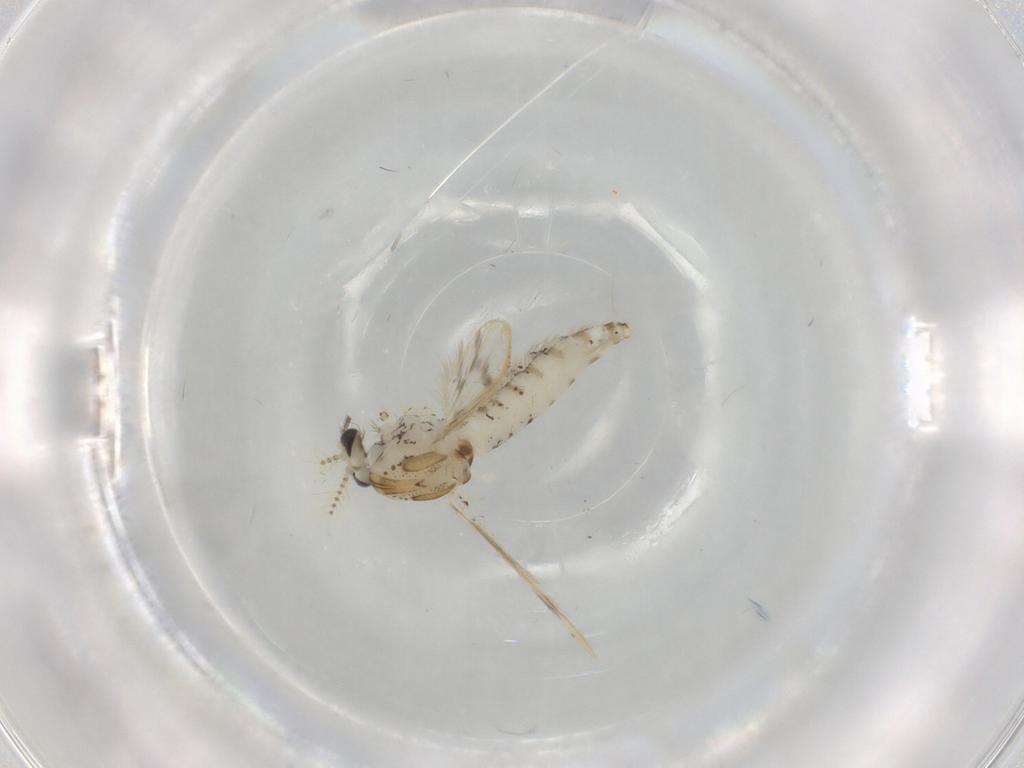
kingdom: Animalia
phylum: Arthropoda
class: Insecta
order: Diptera
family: Chaoboridae
